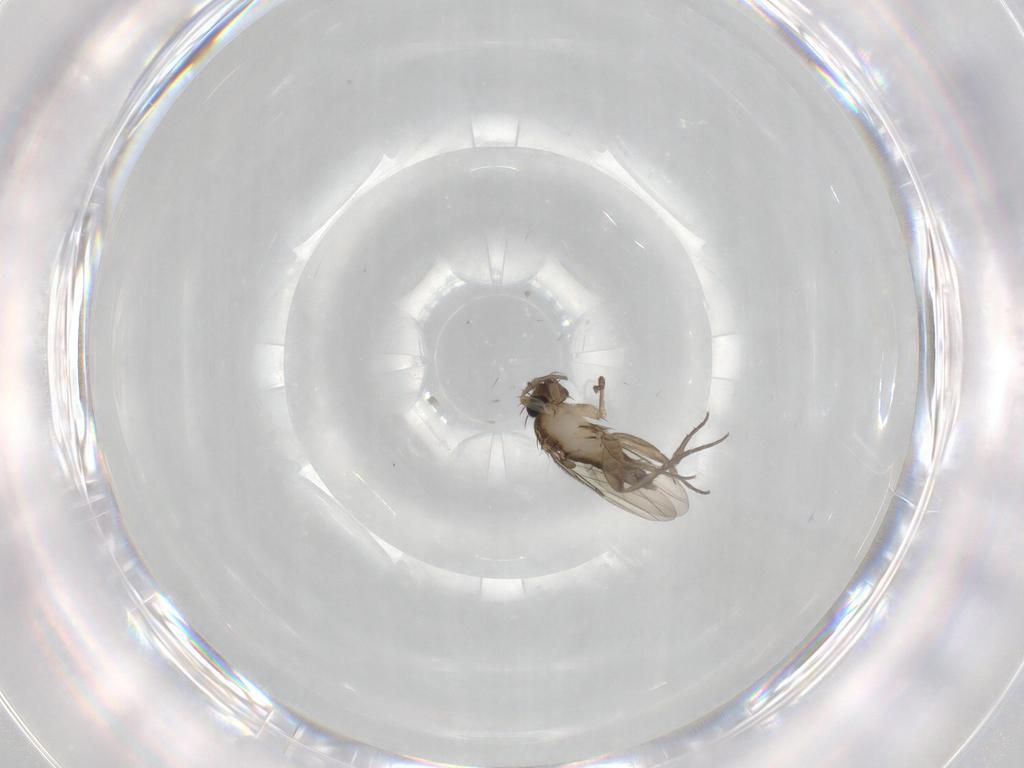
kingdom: Animalia
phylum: Arthropoda
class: Insecta
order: Diptera
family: Phoridae
